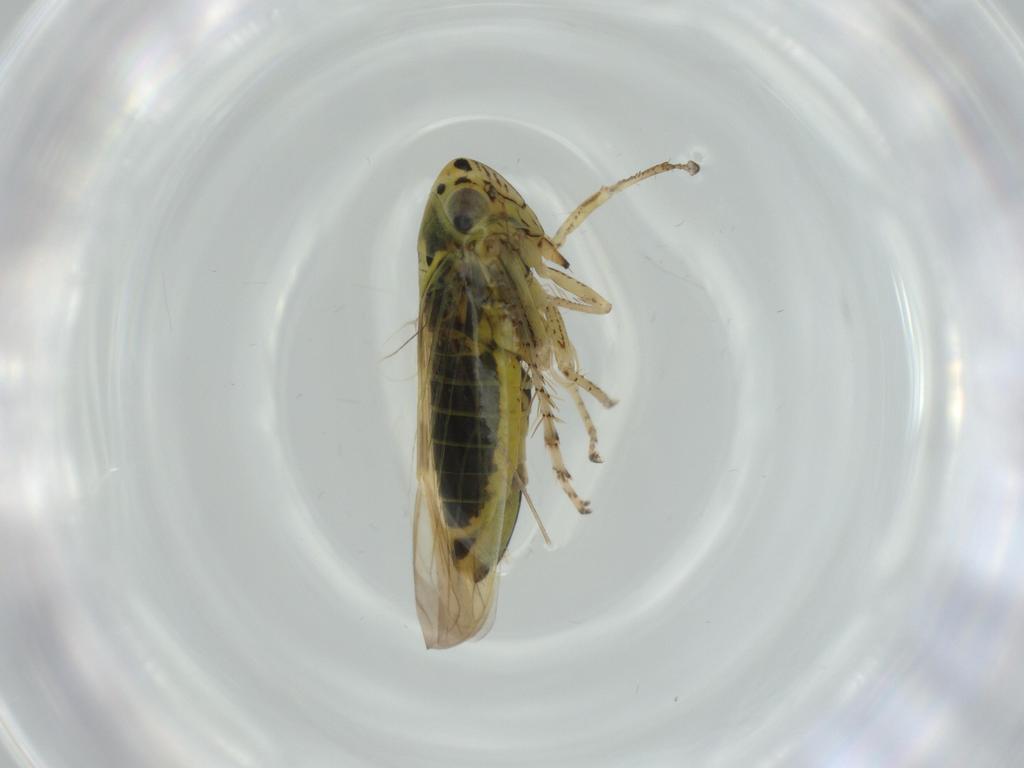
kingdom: Animalia
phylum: Arthropoda
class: Insecta
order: Hemiptera
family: Cicadellidae
